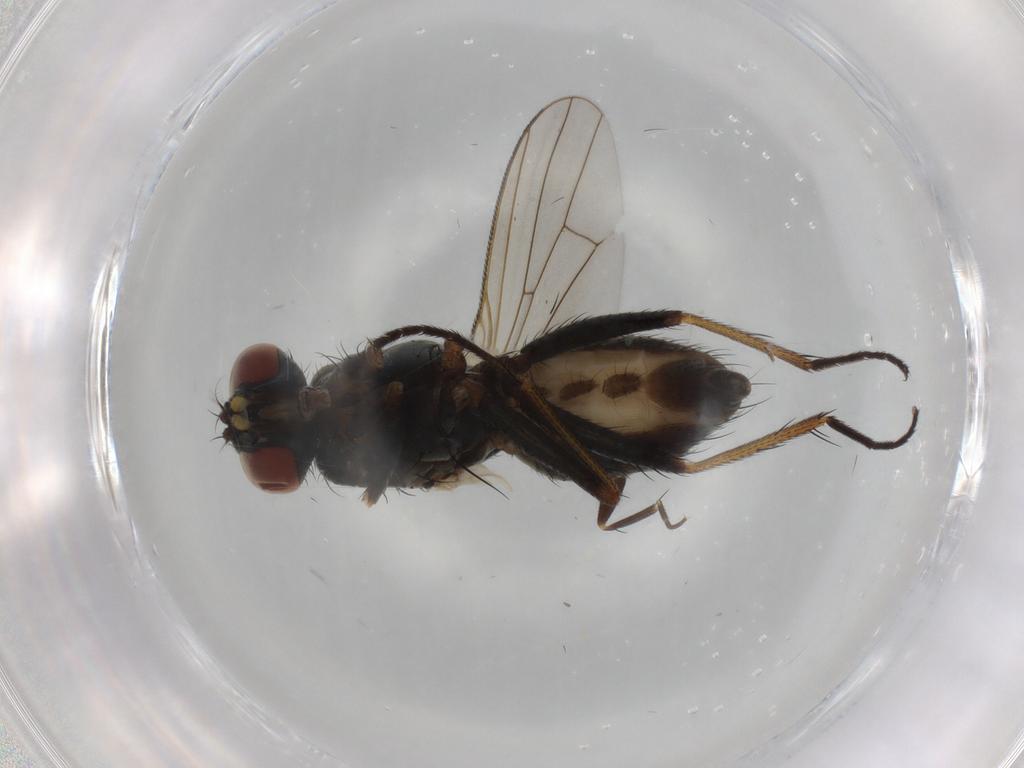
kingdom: Animalia
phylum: Arthropoda
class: Insecta
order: Diptera
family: Muscidae
